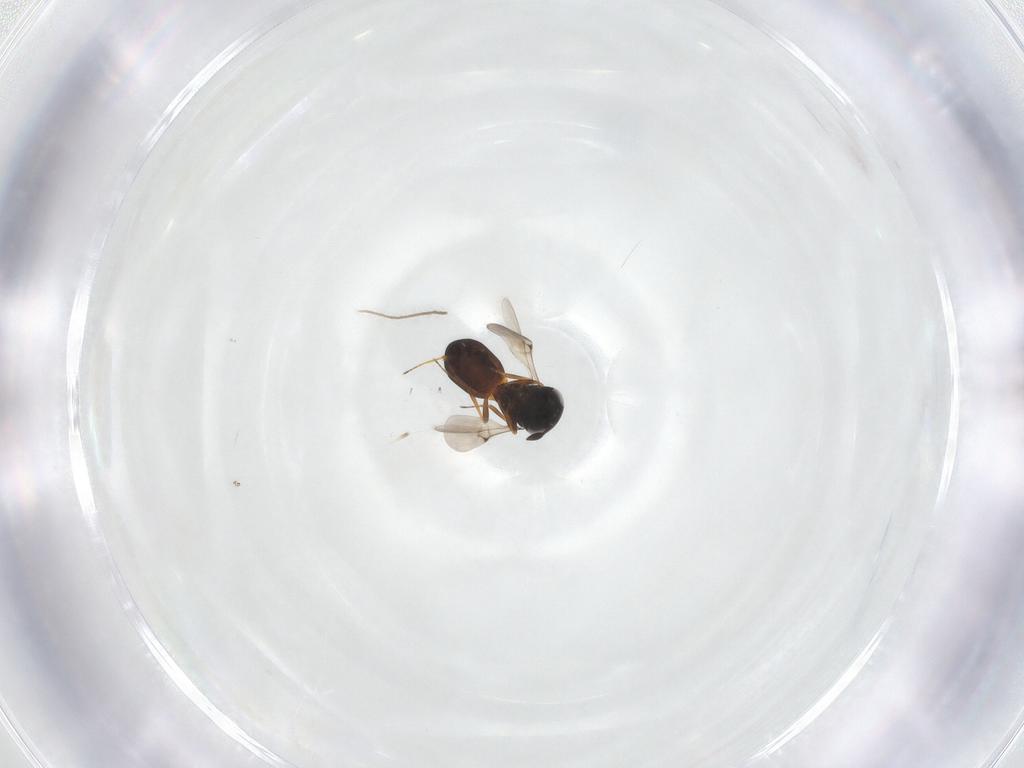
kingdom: Animalia
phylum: Arthropoda
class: Insecta
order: Hymenoptera
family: Scelionidae
